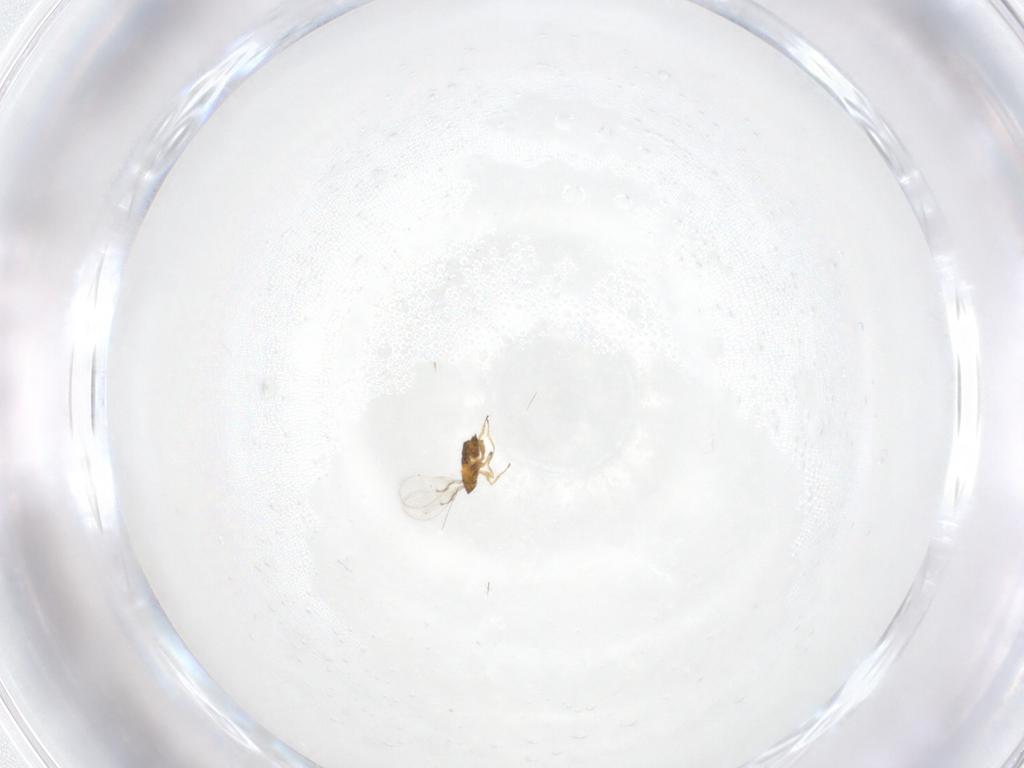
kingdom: Animalia
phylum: Arthropoda
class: Insecta
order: Hymenoptera
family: Trichogrammatidae
